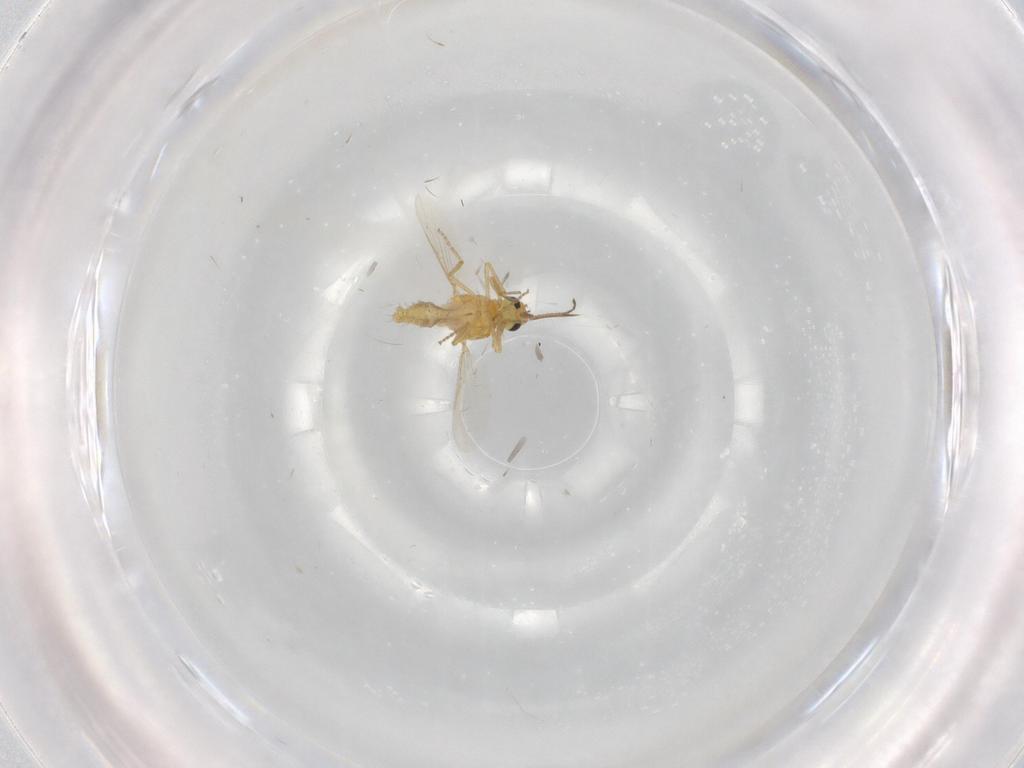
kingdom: Animalia
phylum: Arthropoda
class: Insecta
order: Diptera
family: Ceratopogonidae
